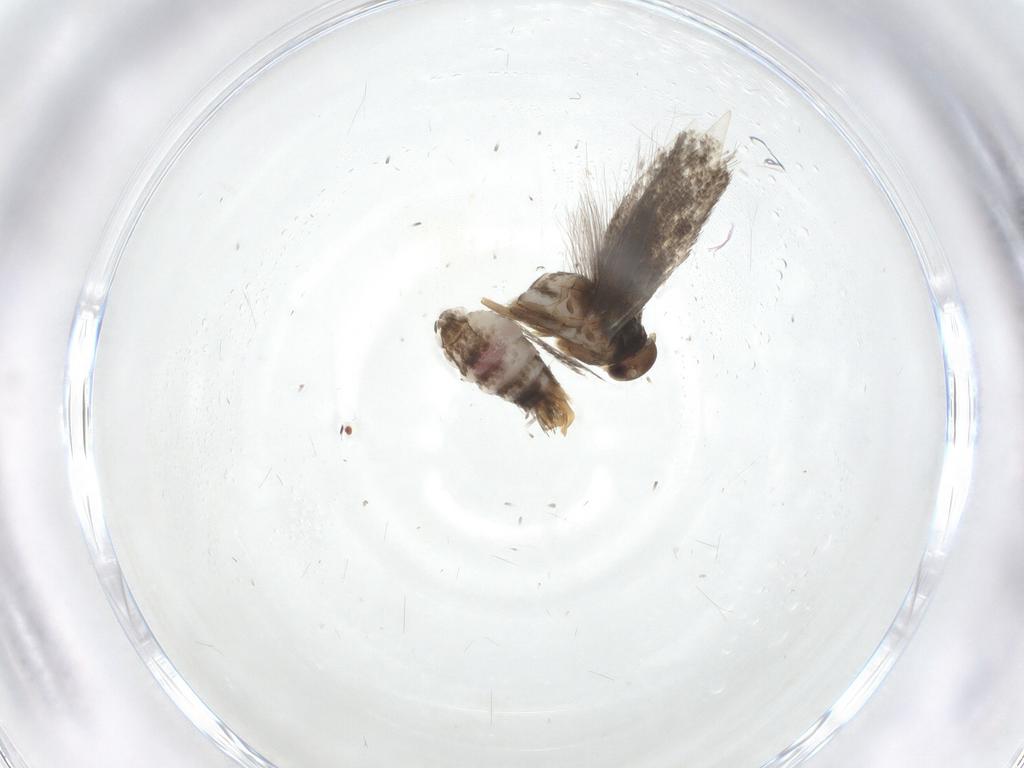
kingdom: Animalia
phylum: Arthropoda
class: Insecta
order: Lepidoptera
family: Elachistidae
